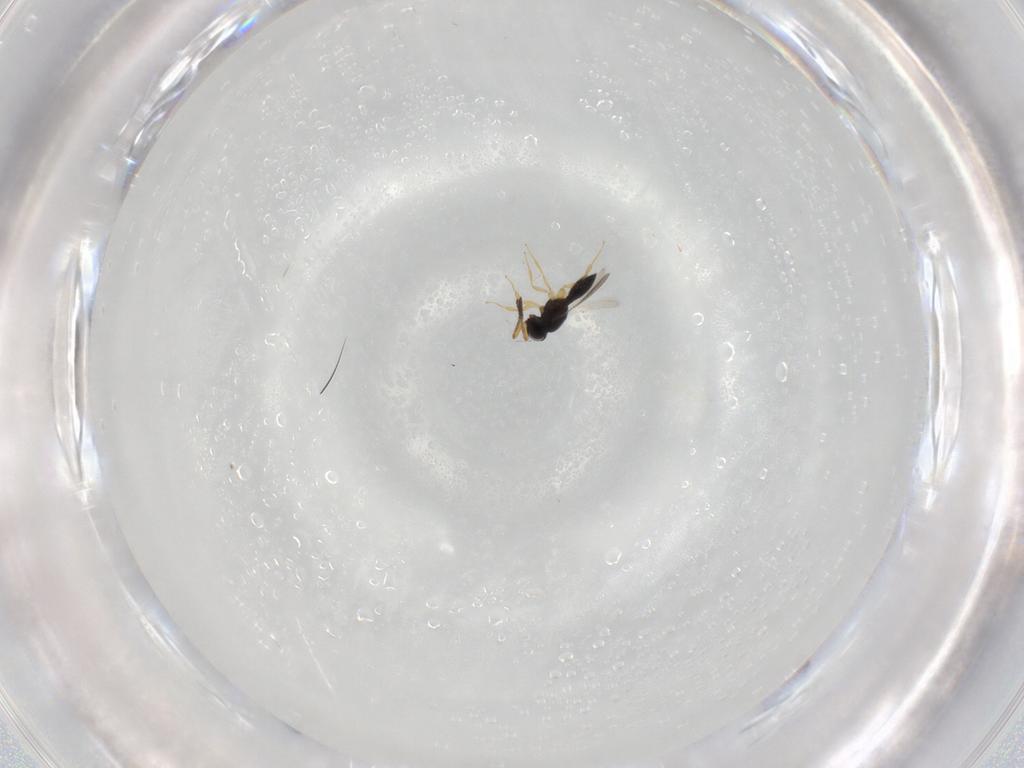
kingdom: Animalia
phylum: Arthropoda
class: Insecta
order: Hymenoptera
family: Scelionidae
